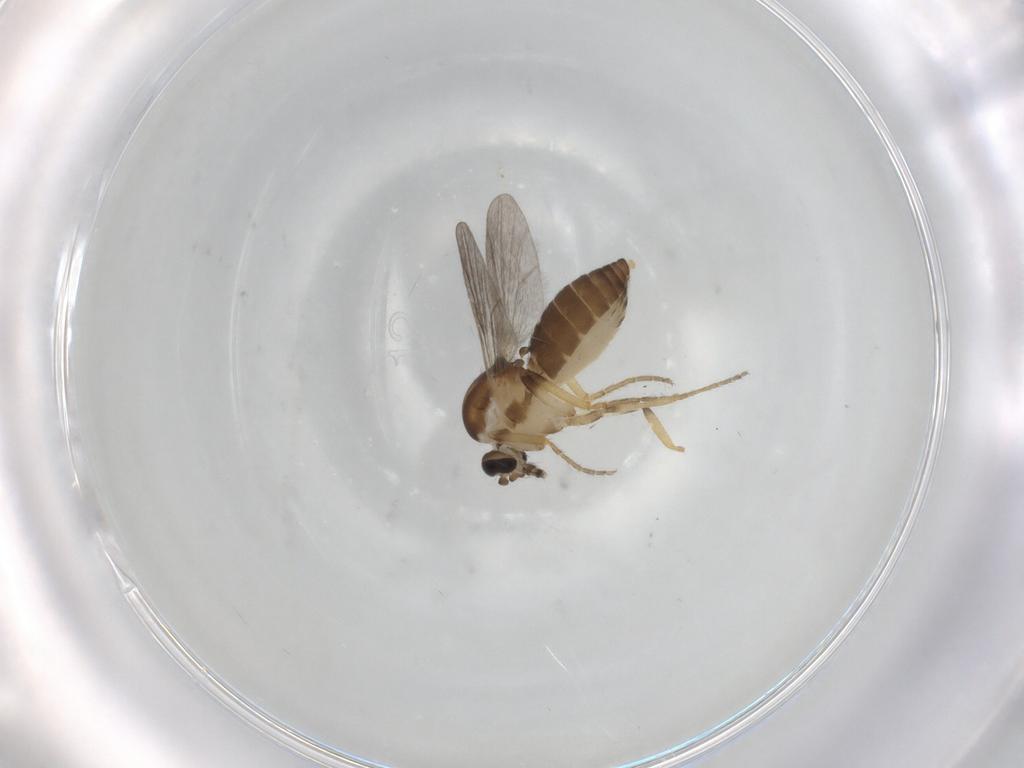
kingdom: Animalia
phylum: Arthropoda
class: Insecta
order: Diptera
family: Ceratopogonidae
